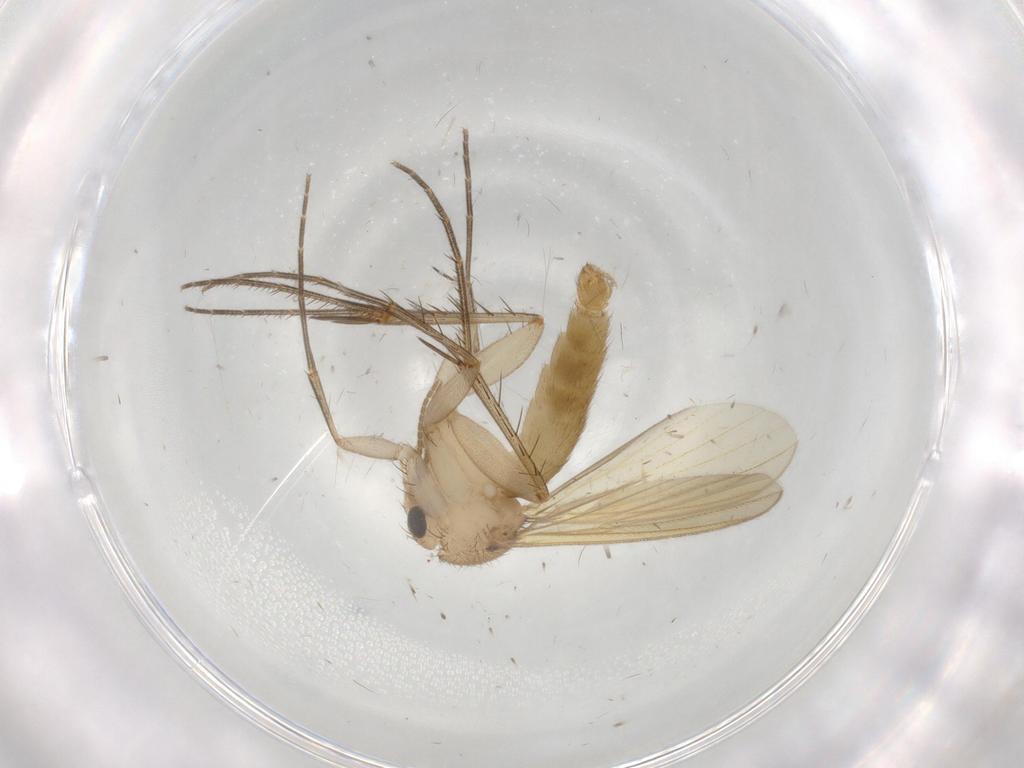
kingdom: Animalia
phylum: Arthropoda
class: Insecta
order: Diptera
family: Mycetophilidae
